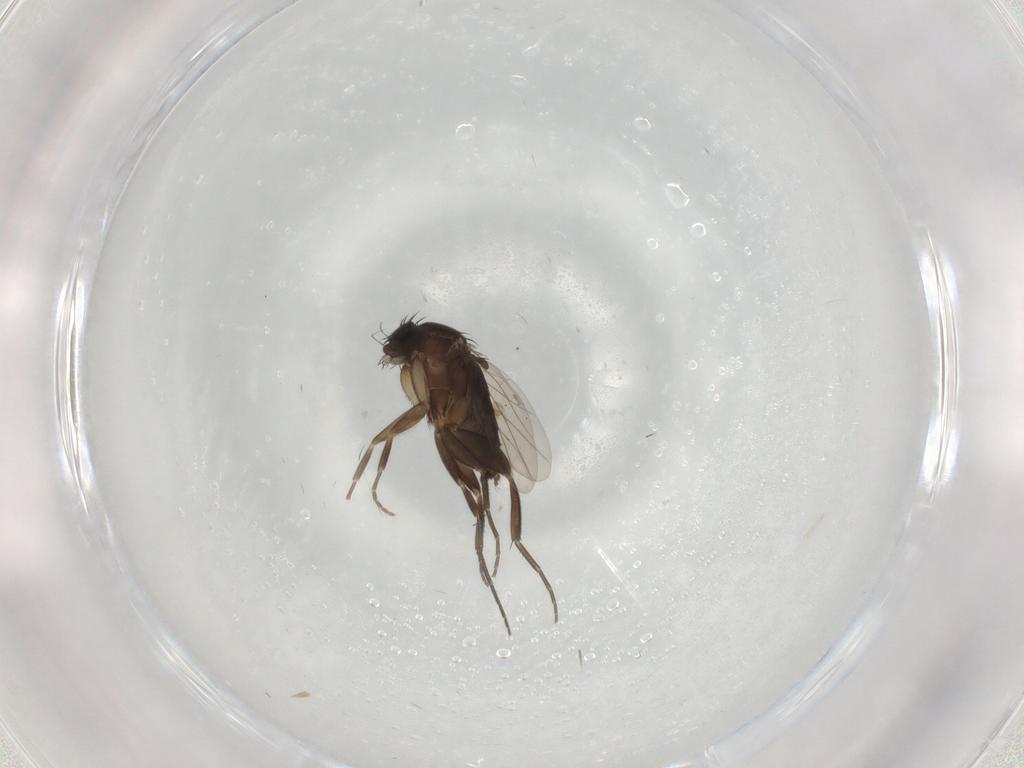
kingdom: Animalia
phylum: Arthropoda
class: Insecta
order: Diptera
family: Phoridae
